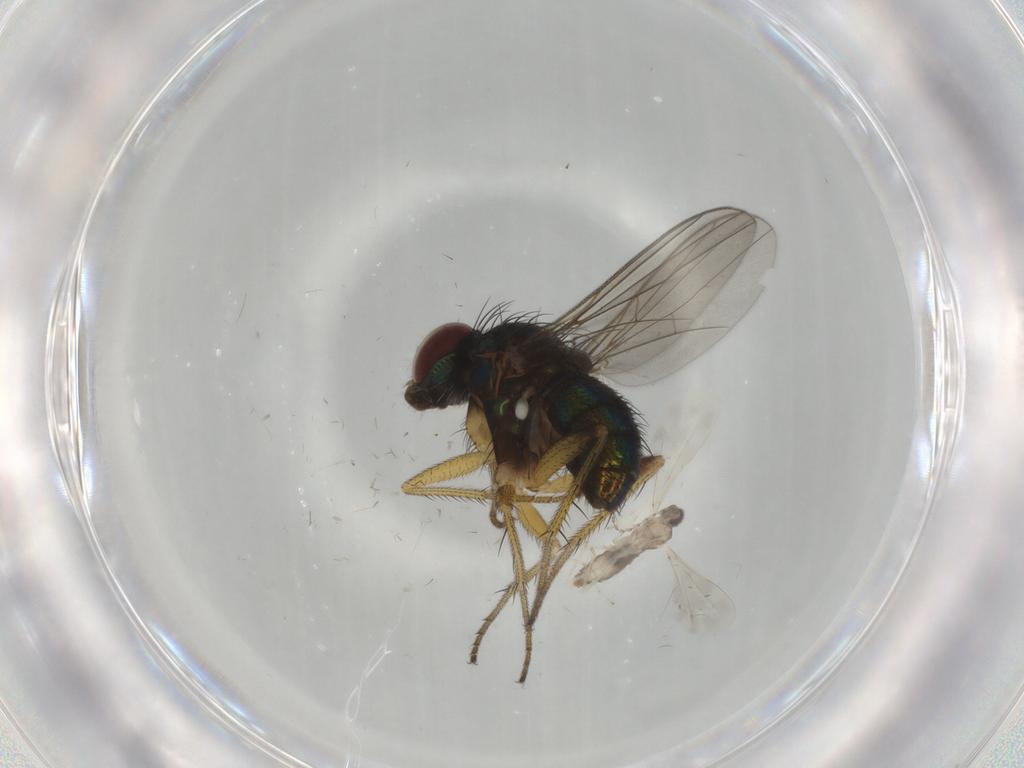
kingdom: Animalia
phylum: Arthropoda
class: Insecta
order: Diptera
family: Dolichopodidae
